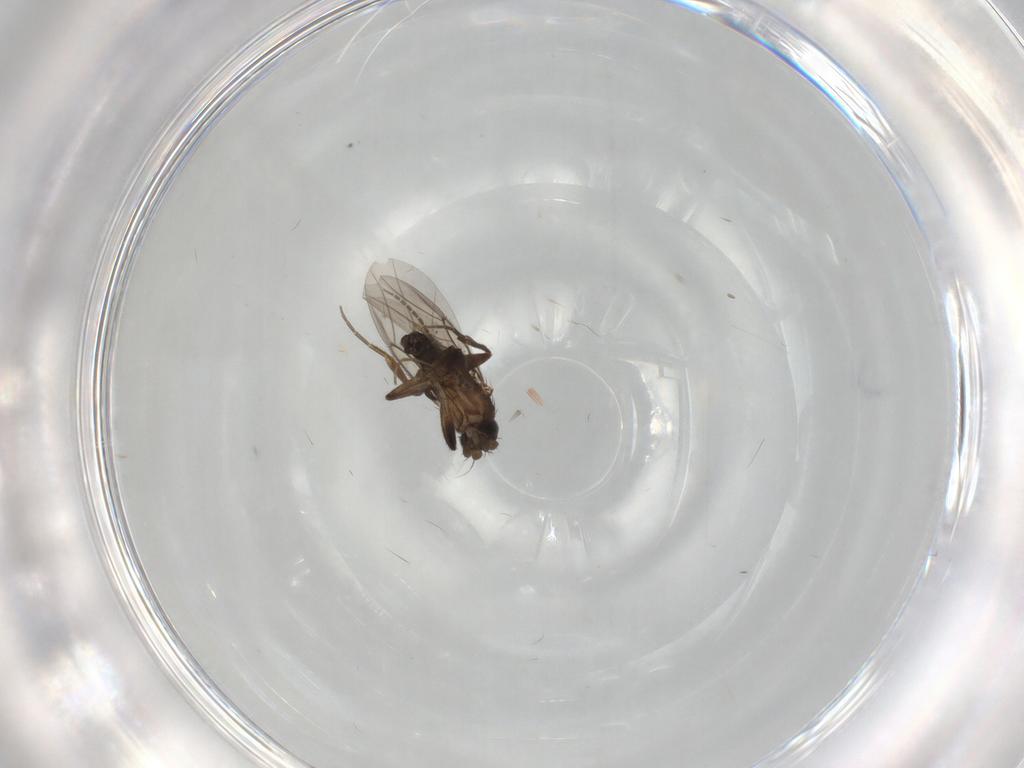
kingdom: Animalia
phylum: Arthropoda
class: Insecta
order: Diptera
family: Phoridae
